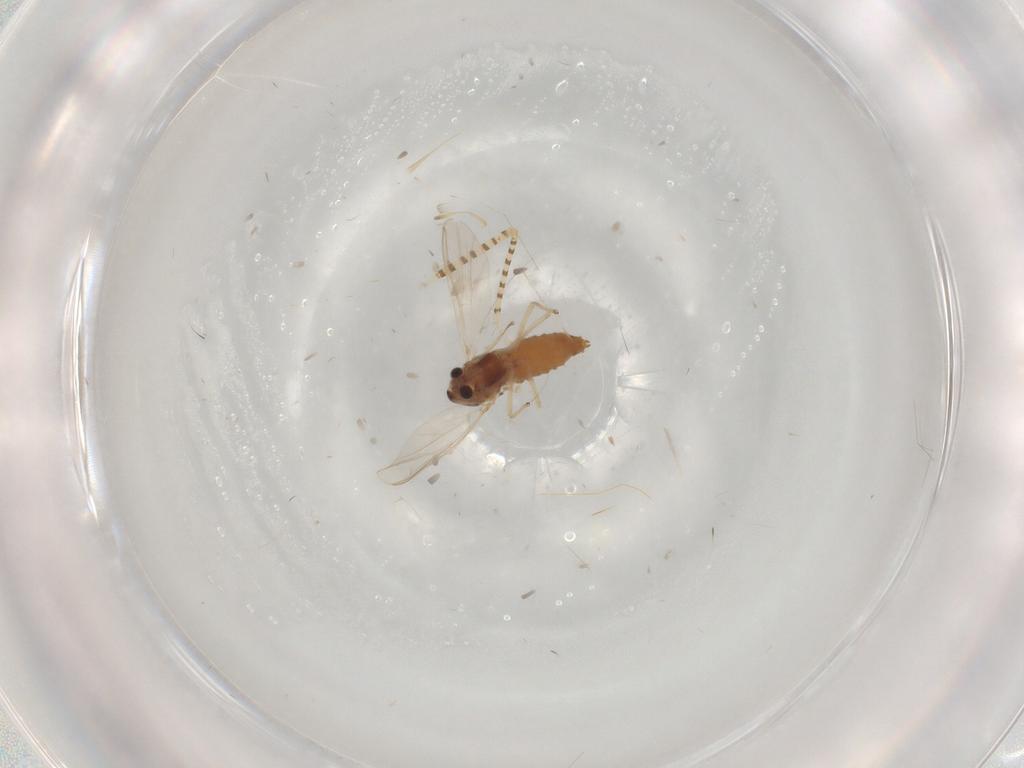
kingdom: Animalia
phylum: Arthropoda
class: Insecta
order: Diptera
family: Chironomidae
